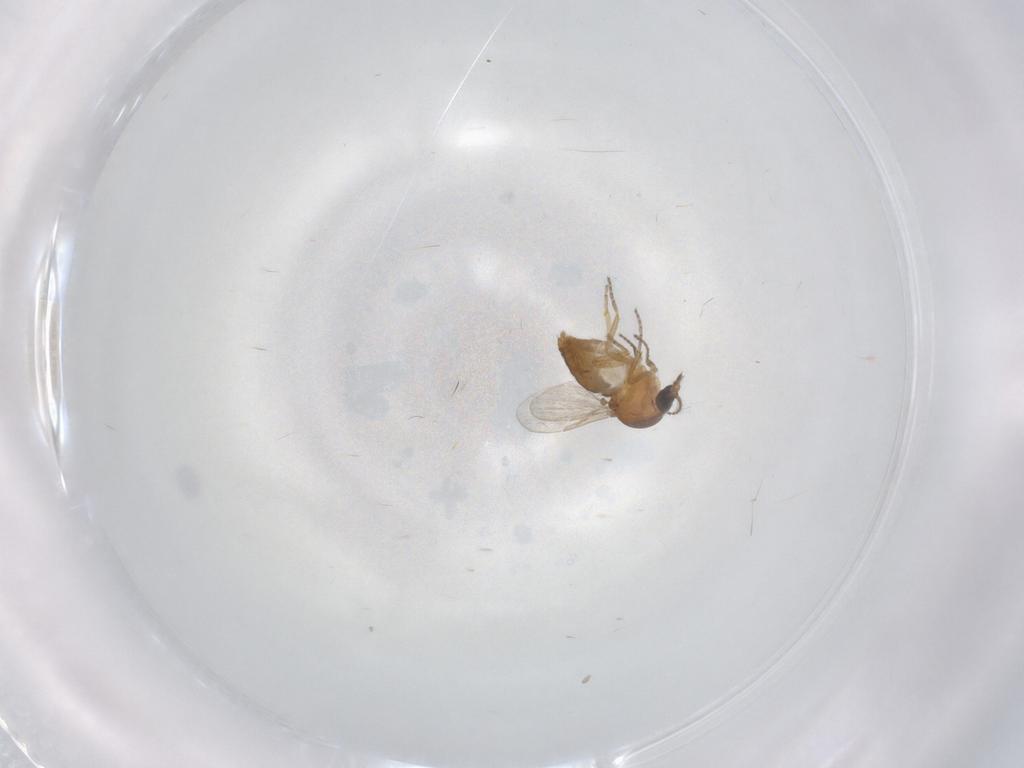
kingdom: Animalia
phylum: Arthropoda
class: Insecta
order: Diptera
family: Ceratopogonidae
